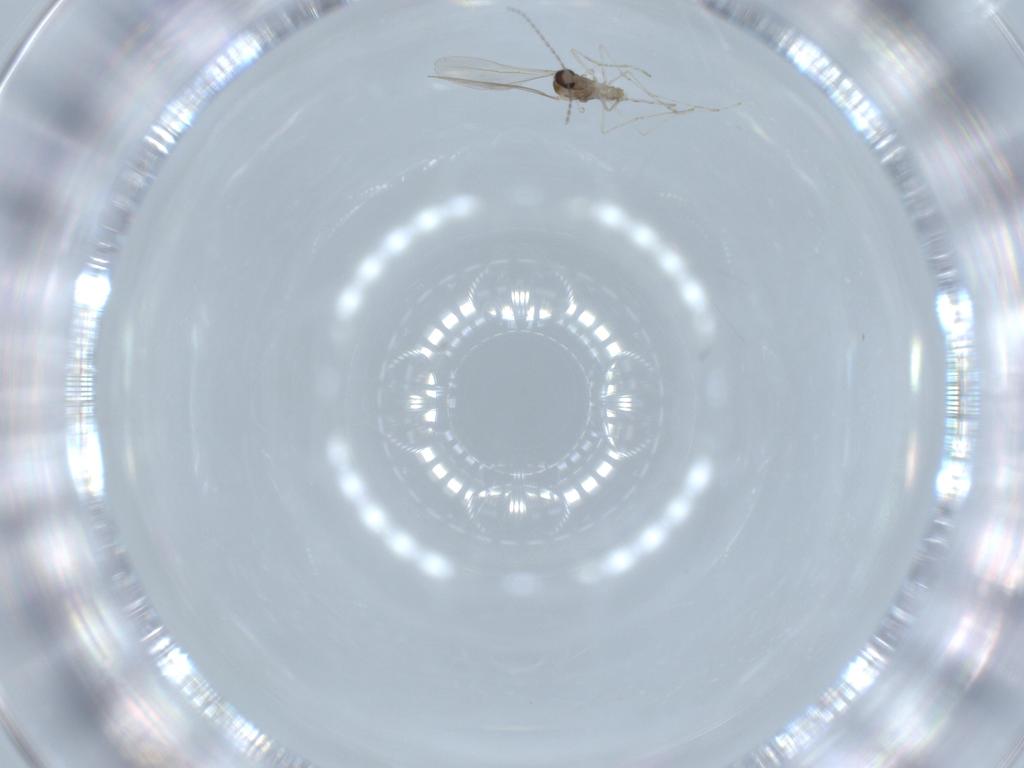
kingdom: Animalia
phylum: Arthropoda
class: Insecta
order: Diptera
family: Cecidomyiidae
